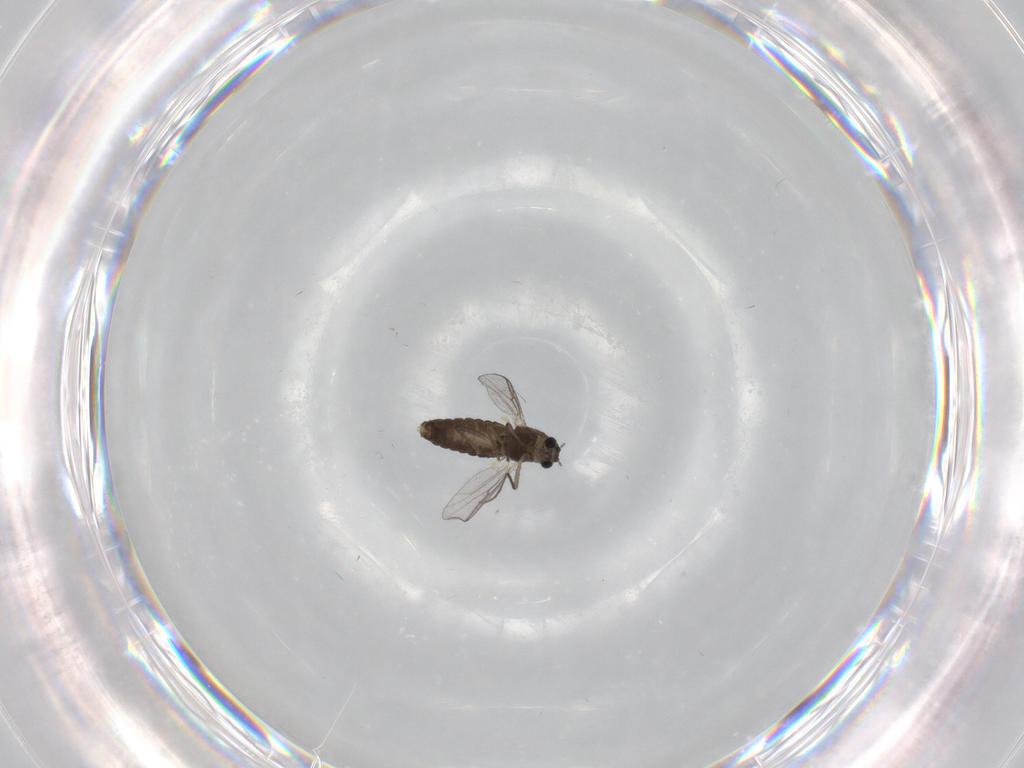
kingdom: Animalia
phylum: Arthropoda
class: Insecta
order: Diptera
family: Chironomidae
